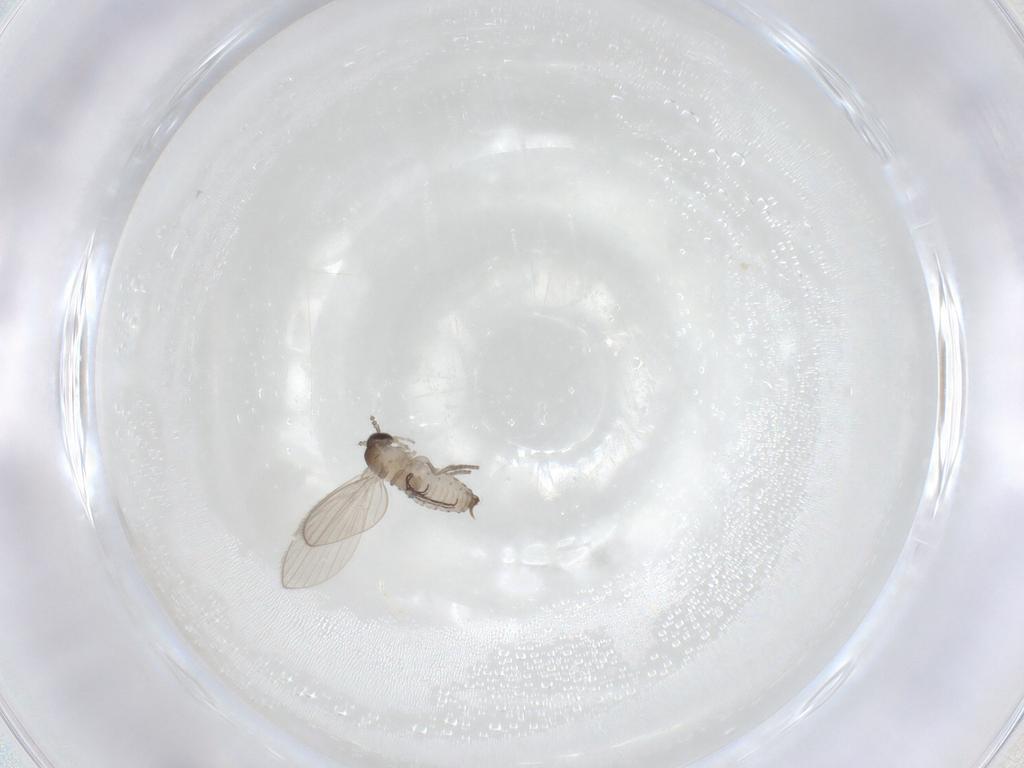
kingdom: Animalia
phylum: Arthropoda
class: Insecta
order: Diptera
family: Psychodidae
